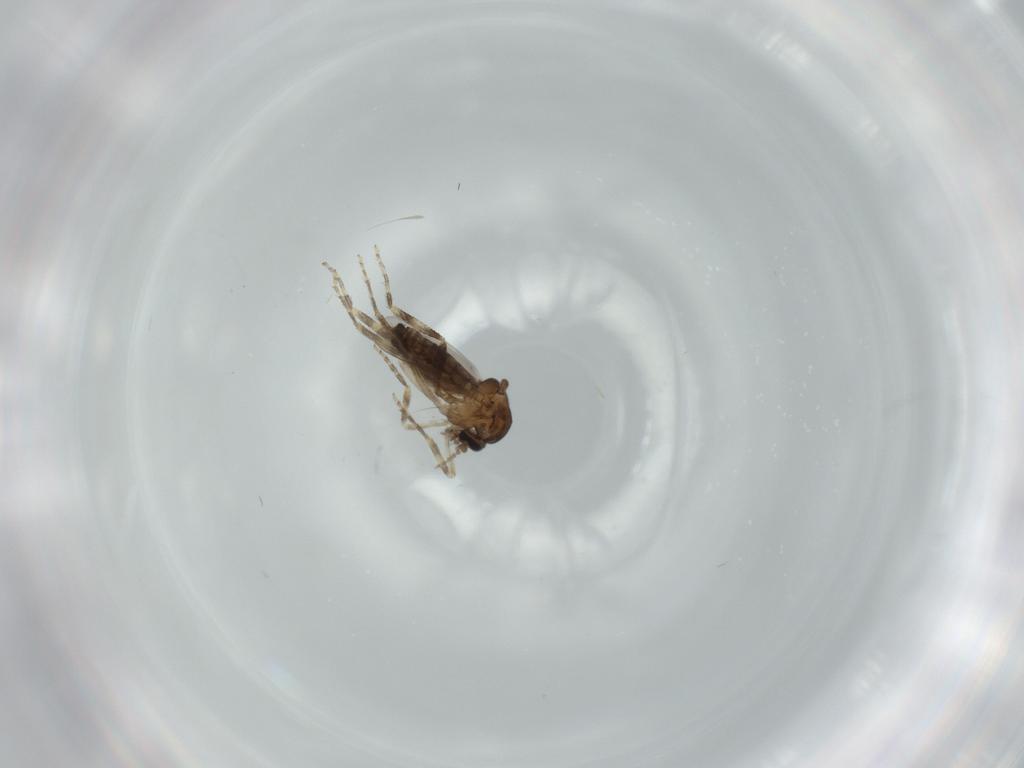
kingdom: Animalia
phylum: Arthropoda
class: Insecta
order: Diptera
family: Ceratopogonidae
